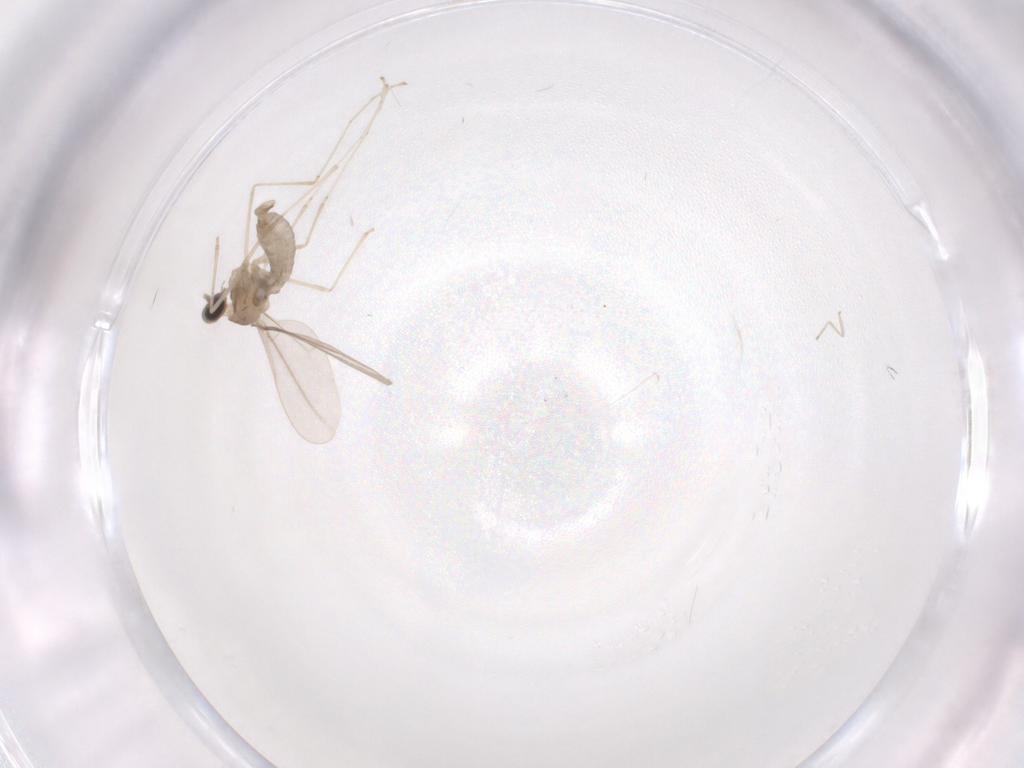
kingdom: Animalia
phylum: Arthropoda
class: Insecta
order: Diptera
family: Cecidomyiidae
